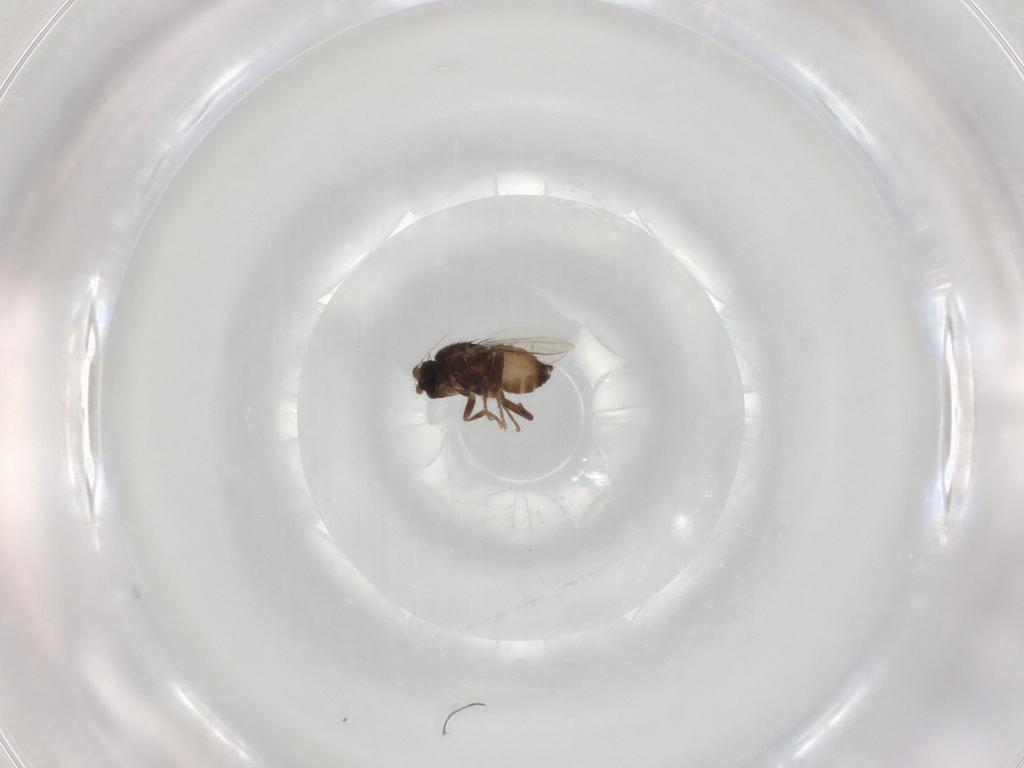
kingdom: Animalia
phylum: Arthropoda
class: Insecta
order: Diptera
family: Sphaeroceridae
